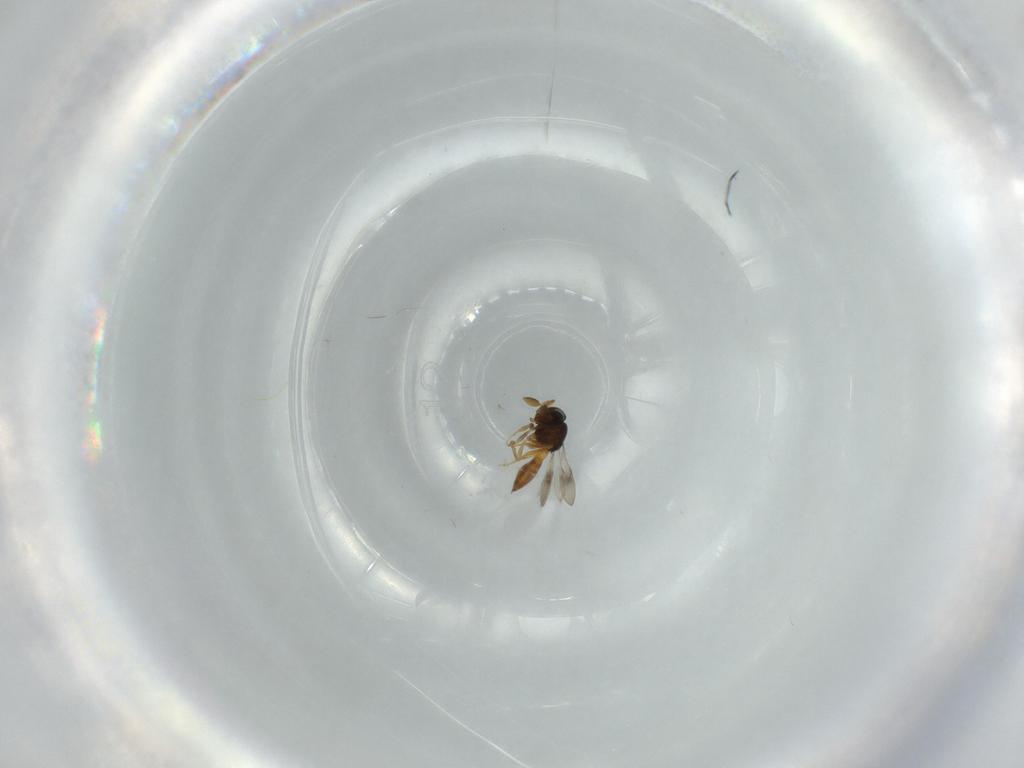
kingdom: Animalia
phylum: Arthropoda
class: Insecta
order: Hymenoptera
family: Scelionidae
